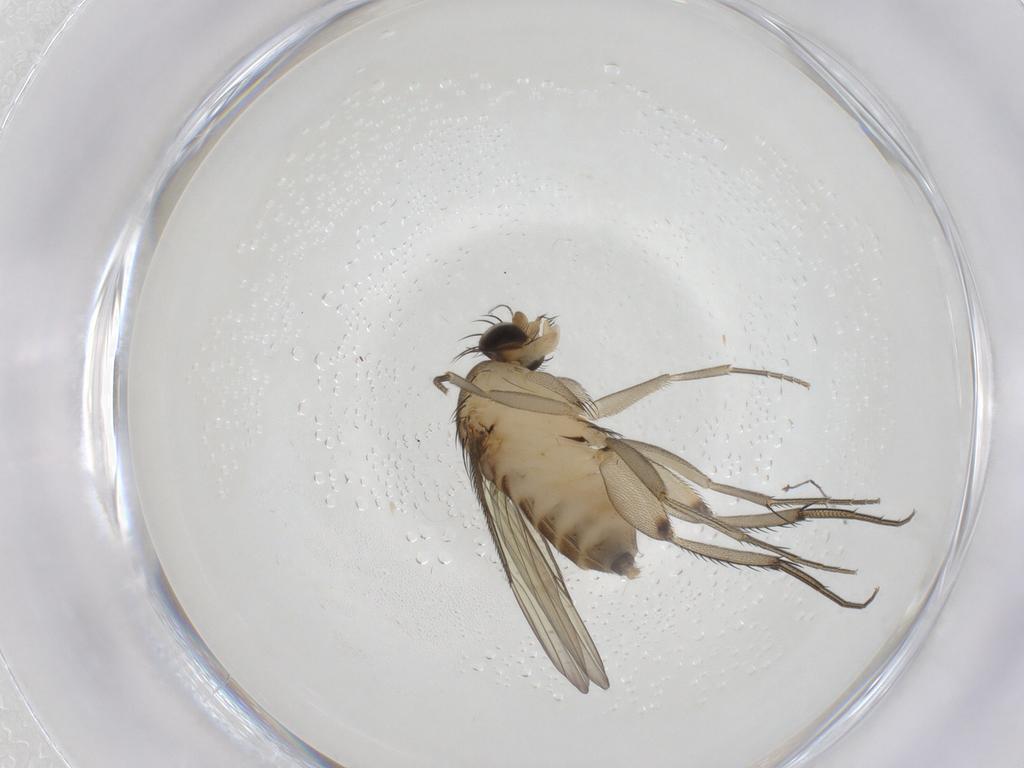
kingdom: Animalia
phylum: Arthropoda
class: Insecta
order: Diptera
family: Phoridae
